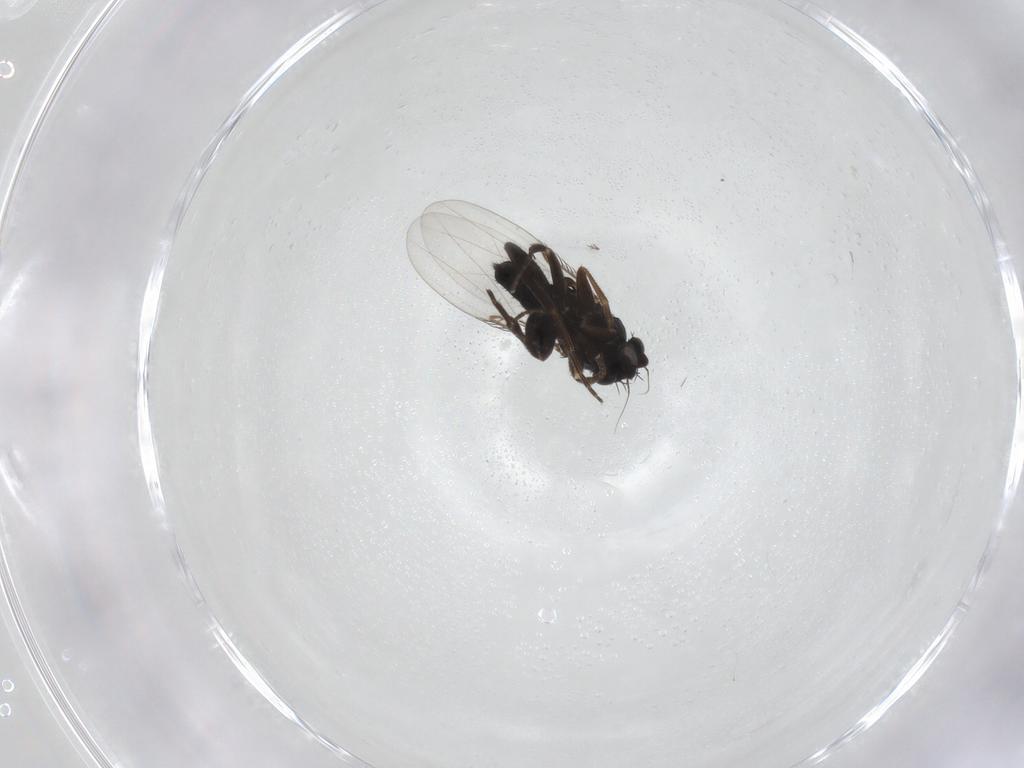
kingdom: Animalia
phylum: Arthropoda
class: Insecta
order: Diptera
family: Phoridae
